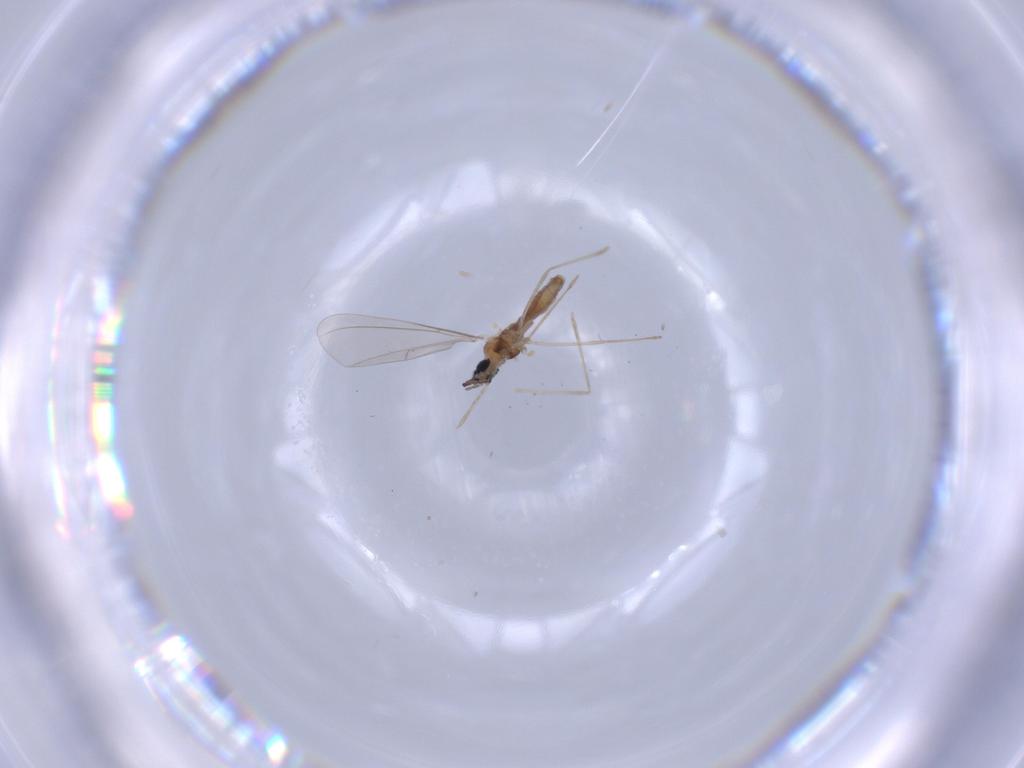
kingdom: Animalia
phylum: Arthropoda
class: Insecta
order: Diptera
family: Cecidomyiidae
